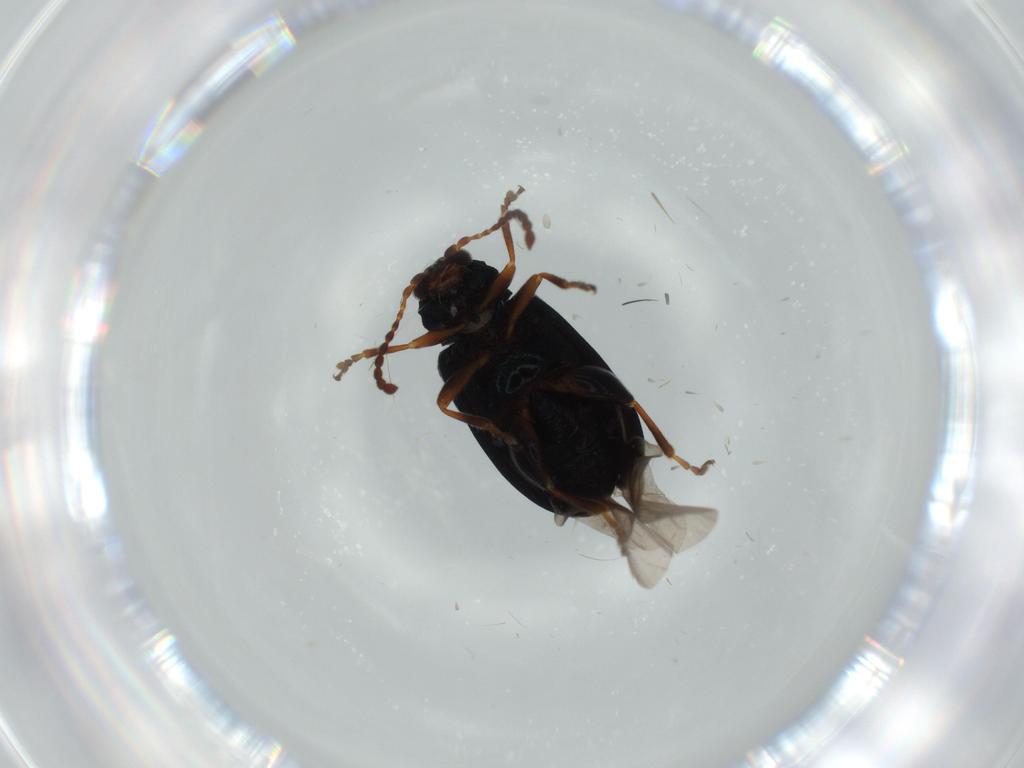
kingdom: Animalia
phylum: Arthropoda
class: Insecta
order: Coleoptera
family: Chrysomelidae
